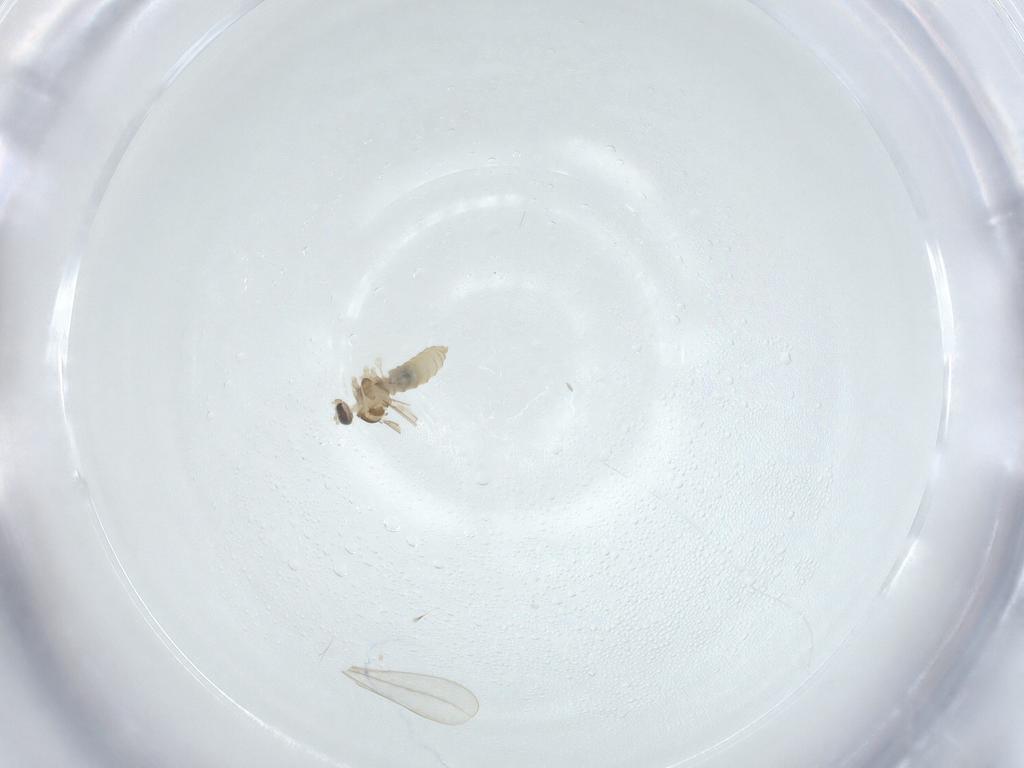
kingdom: Animalia
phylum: Arthropoda
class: Insecta
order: Diptera
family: Cecidomyiidae
